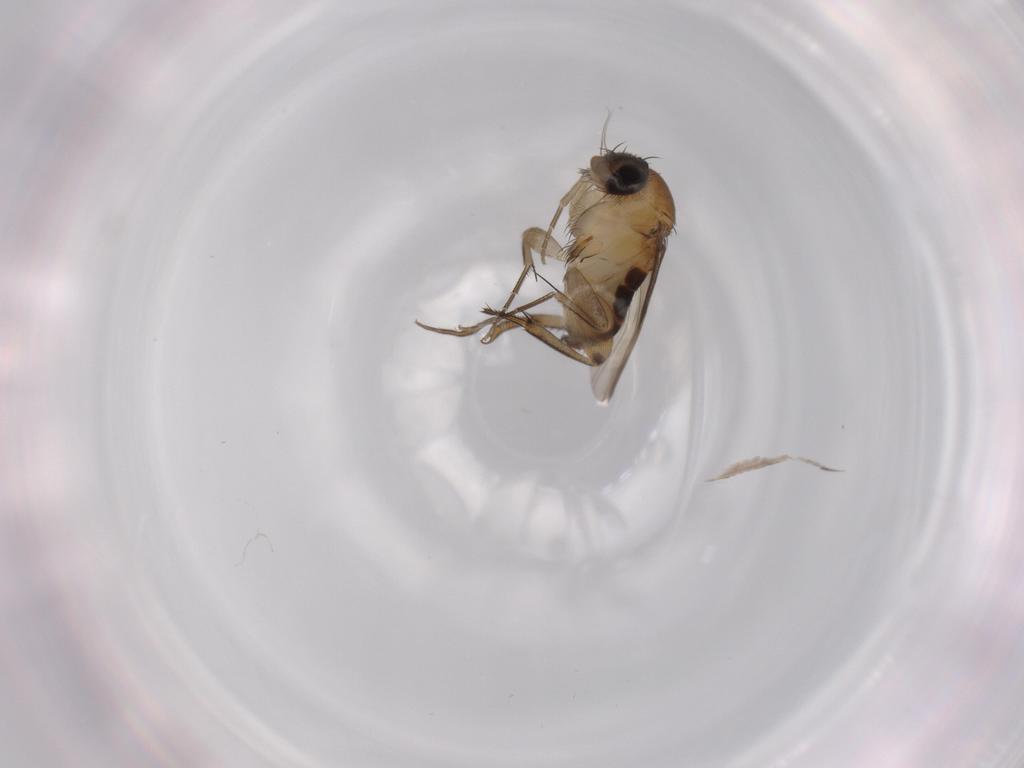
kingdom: Animalia
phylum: Arthropoda
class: Insecta
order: Diptera
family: Phoridae
